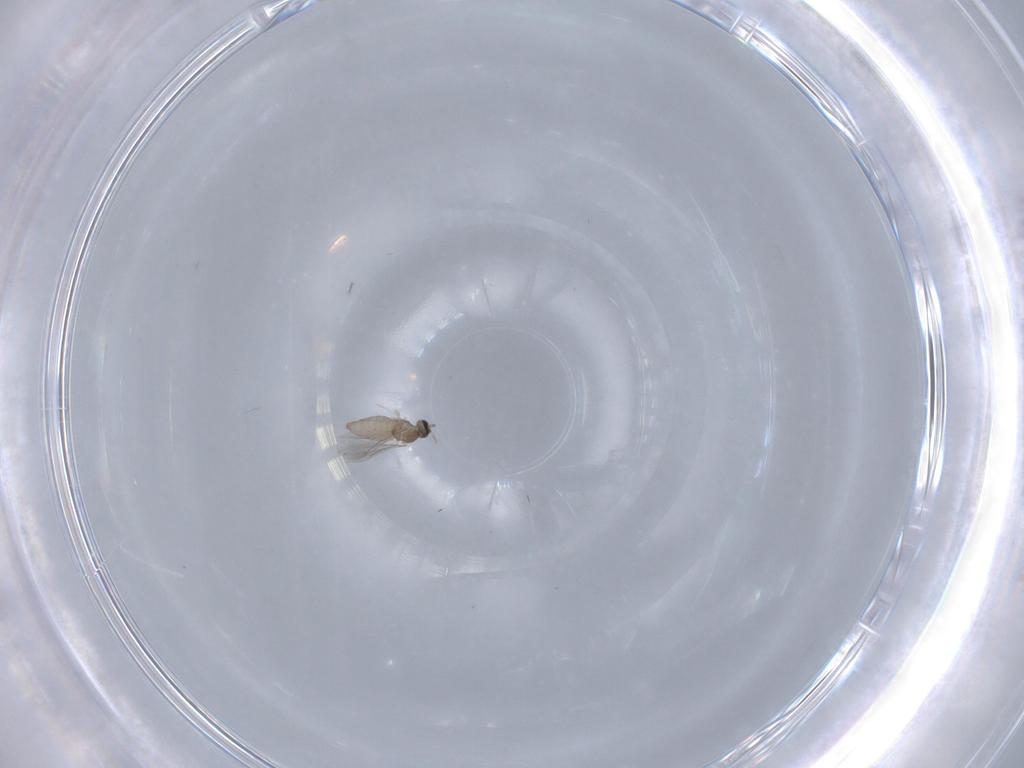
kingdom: Animalia
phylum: Arthropoda
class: Insecta
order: Diptera
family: Cecidomyiidae
